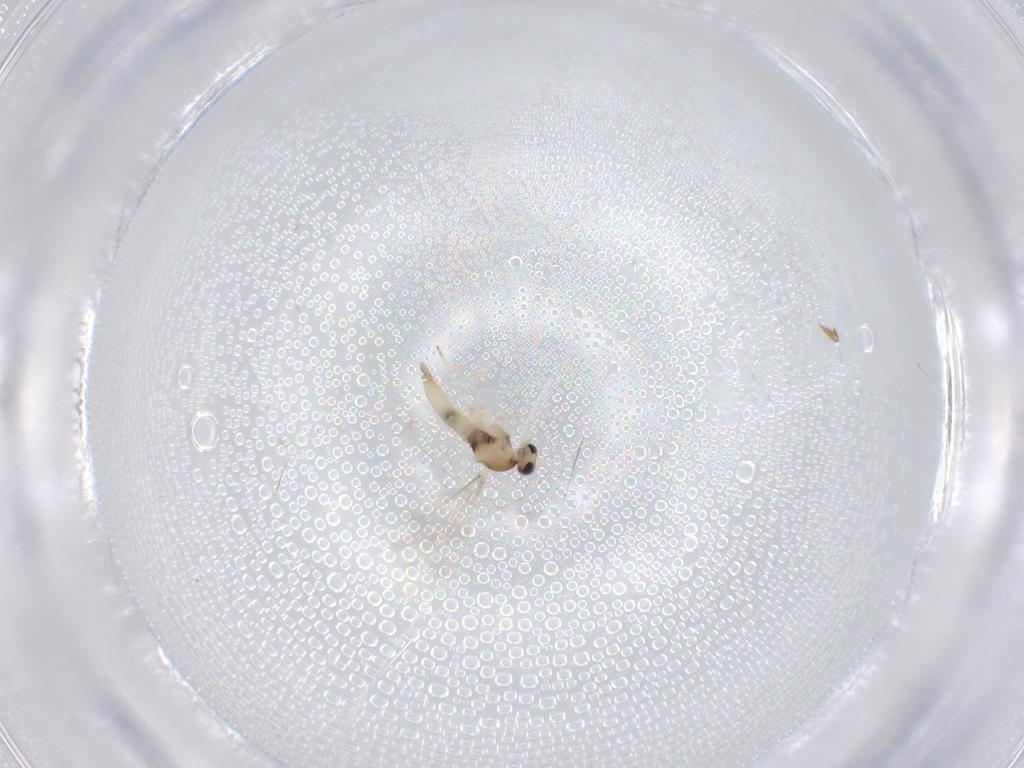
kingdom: Animalia
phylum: Arthropoda
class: Insecta
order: Diptera
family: Cecidomyiidae
